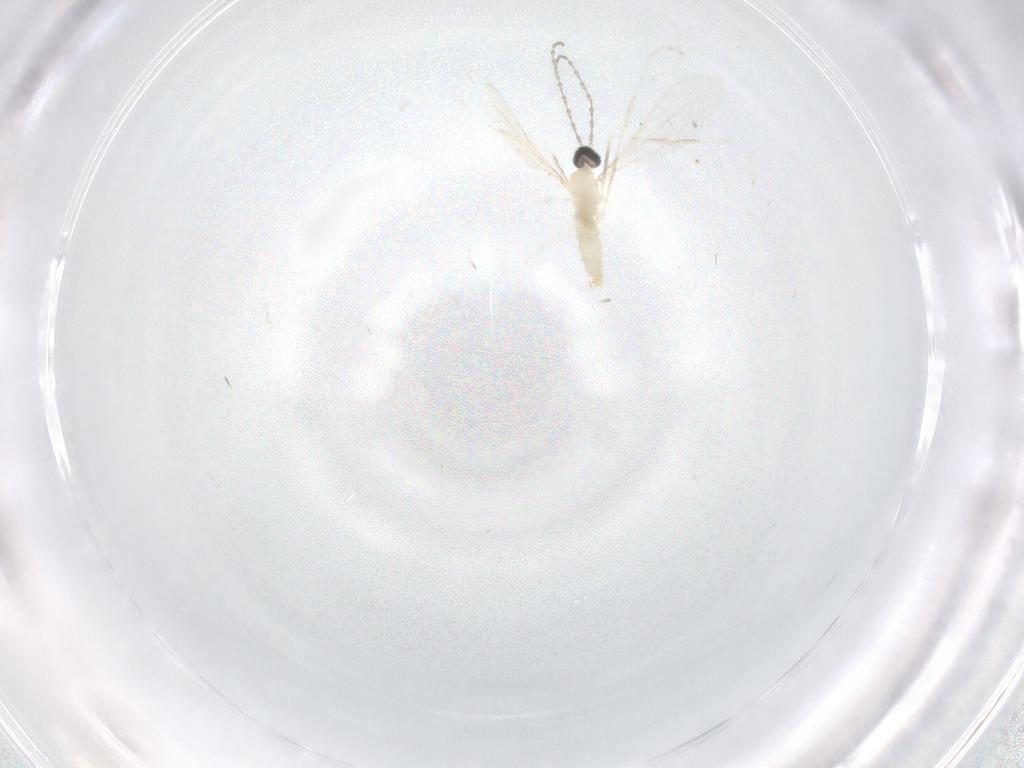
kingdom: Animalia
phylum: Arthropoda
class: Insecta
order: Diptera
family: Cecidomyiidae
